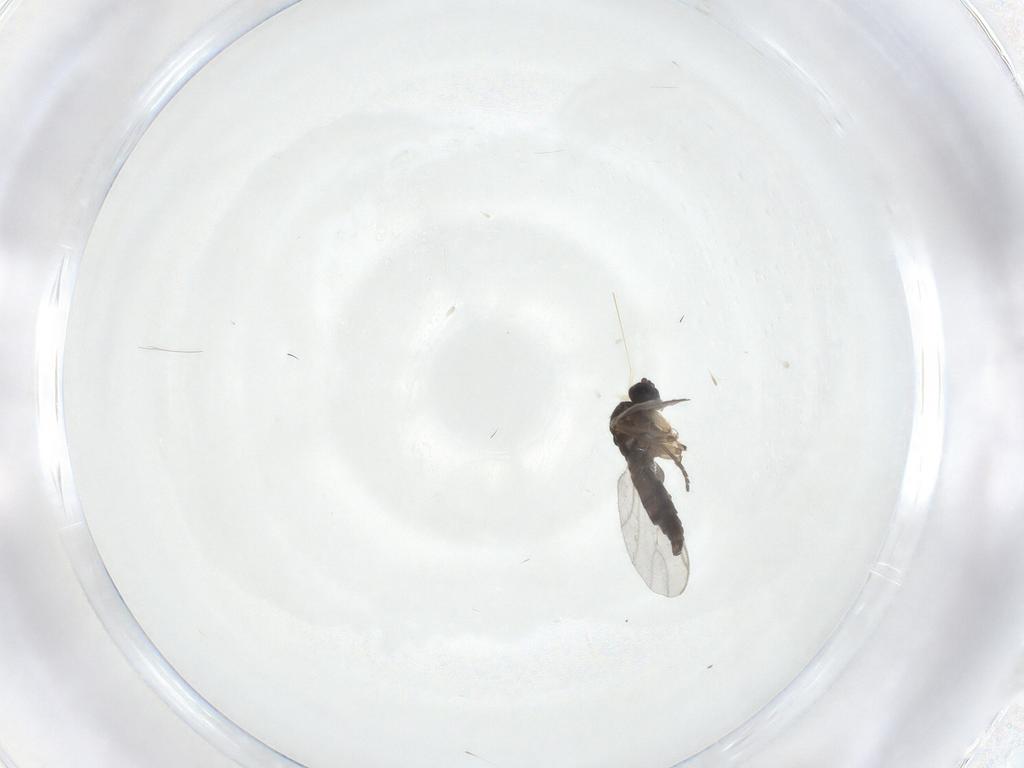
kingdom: Animalia
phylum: Arthropoda
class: Insecta
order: Diptera
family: Sciaridae
